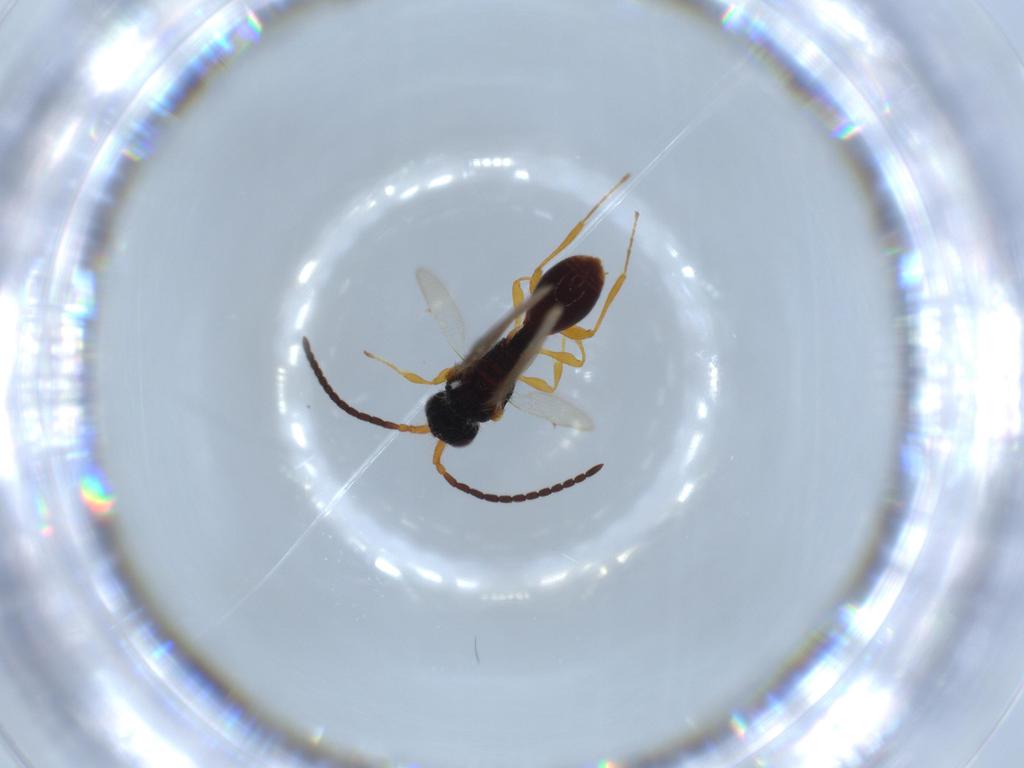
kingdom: Animalia
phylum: Arthropoda
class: Insecta
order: Hymenoptera
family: Diapriidae
